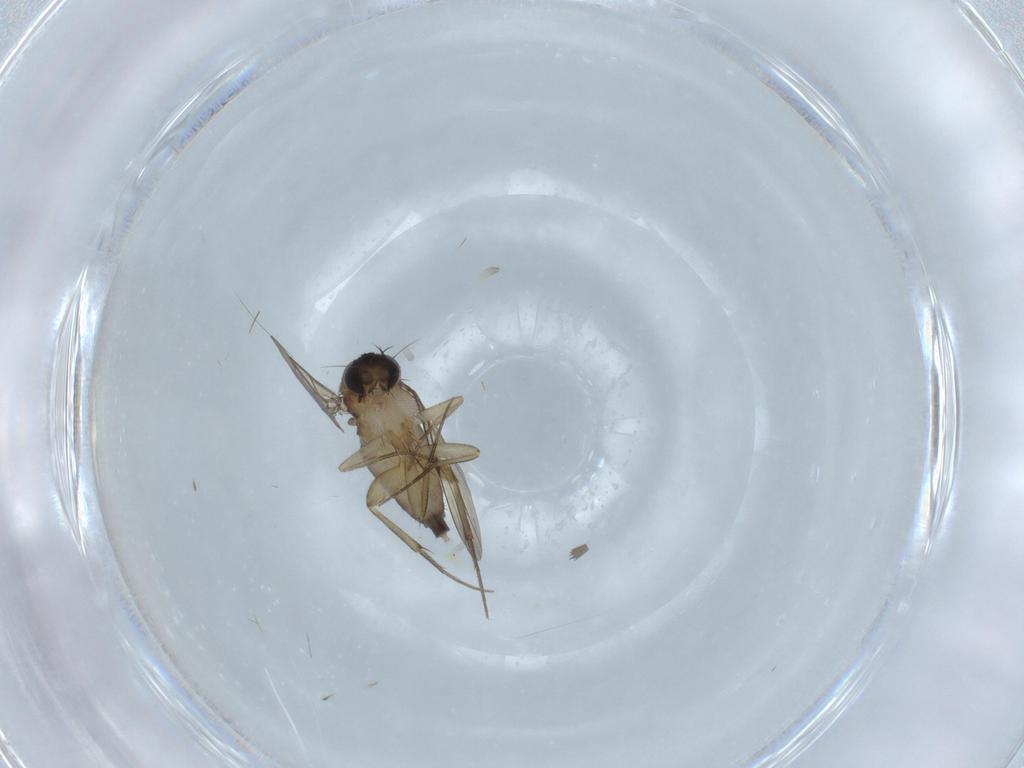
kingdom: Animalia
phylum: Arthropoda
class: Insecta
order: Diptera
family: Phoridae
